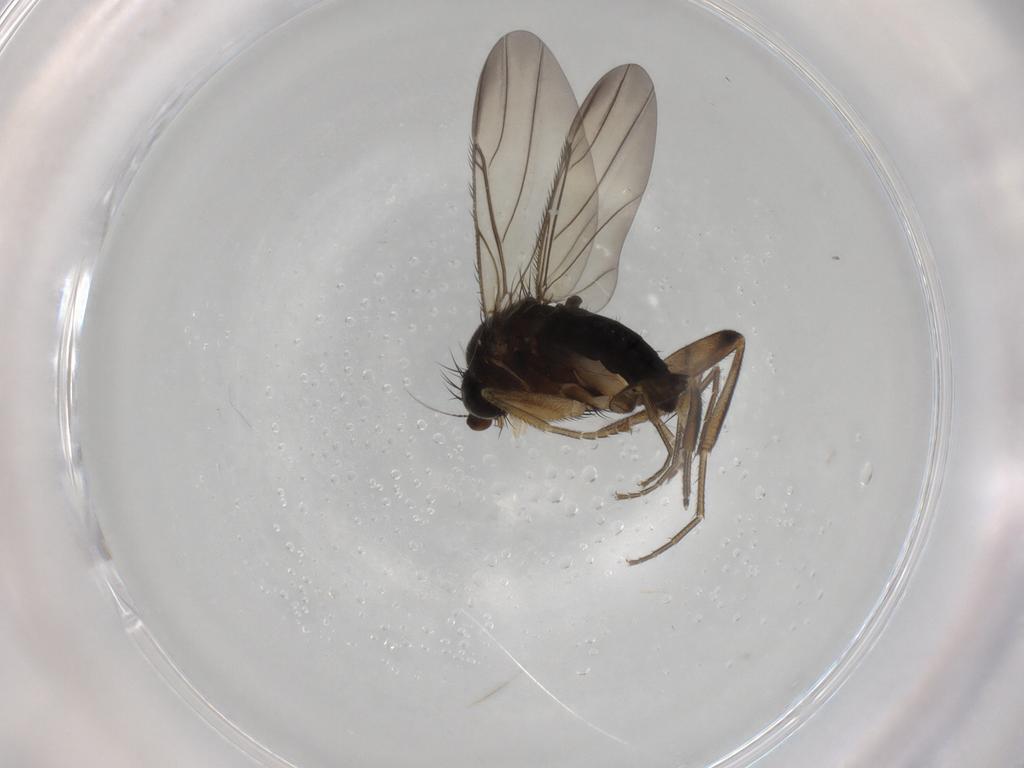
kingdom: Animalia
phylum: Arthropoda
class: Insecta
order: Diptera
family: Phoridae
